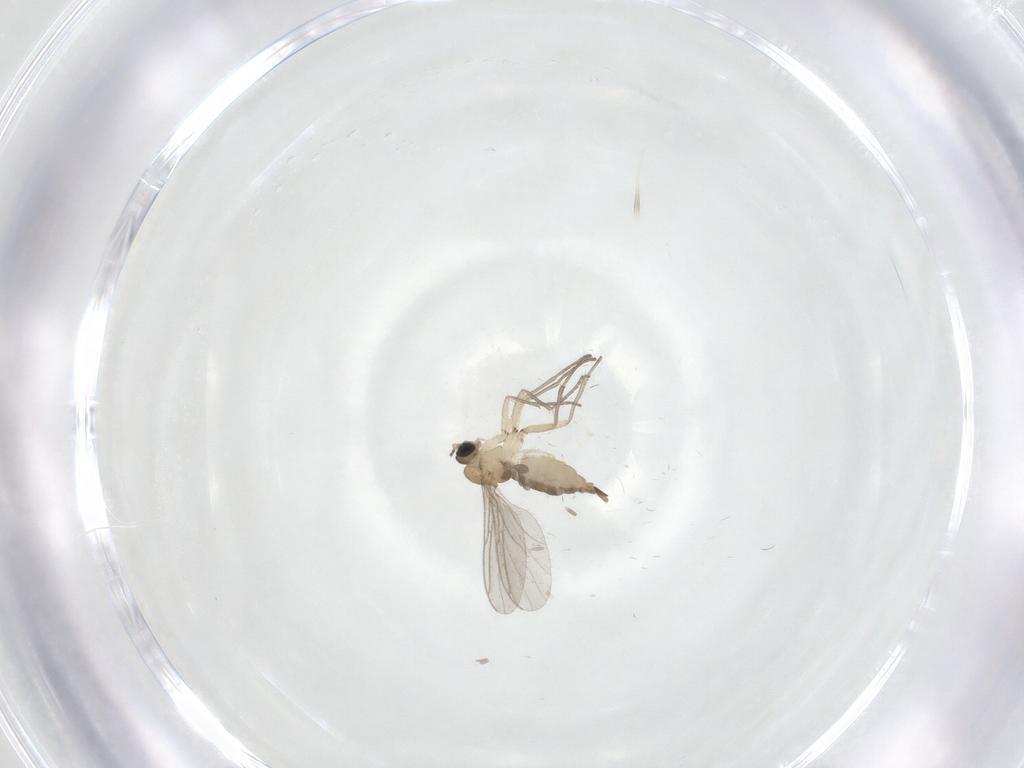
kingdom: Animalia
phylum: Arthropoda
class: Insecta
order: Diptera
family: Sciaridae
